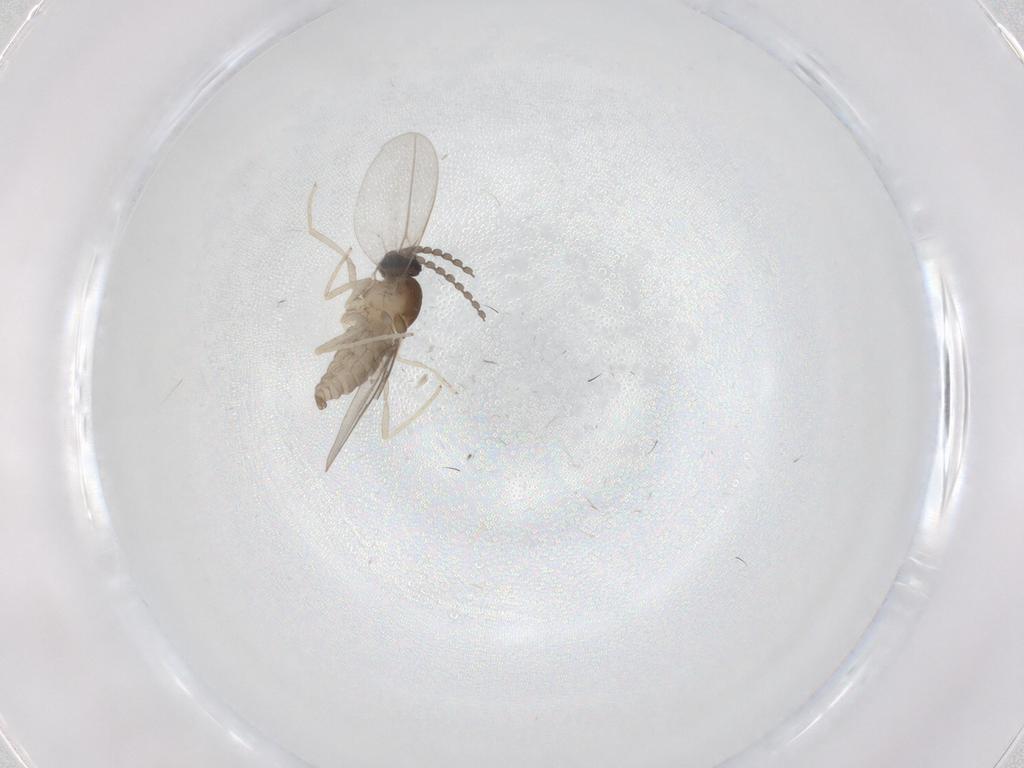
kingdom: Animalia
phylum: Arthropoda
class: Insecta
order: Diptera
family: Cecidomyiidae
